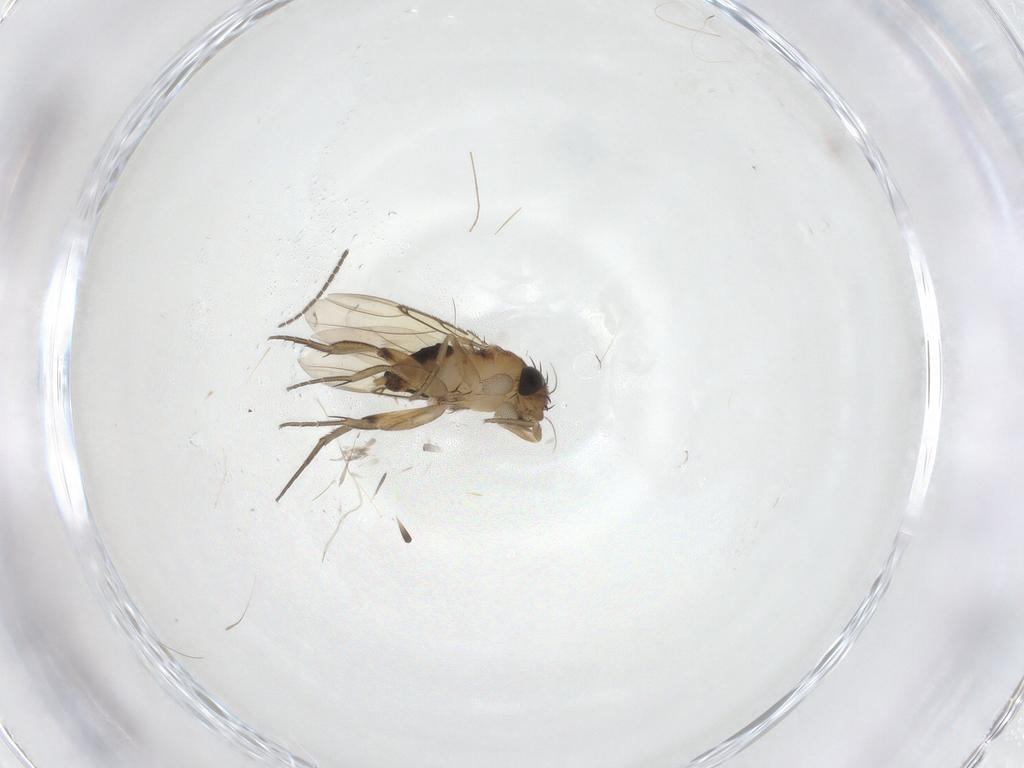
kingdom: Animalia
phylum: Arthropoda
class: Insecta
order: Diptera
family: Phoridae
